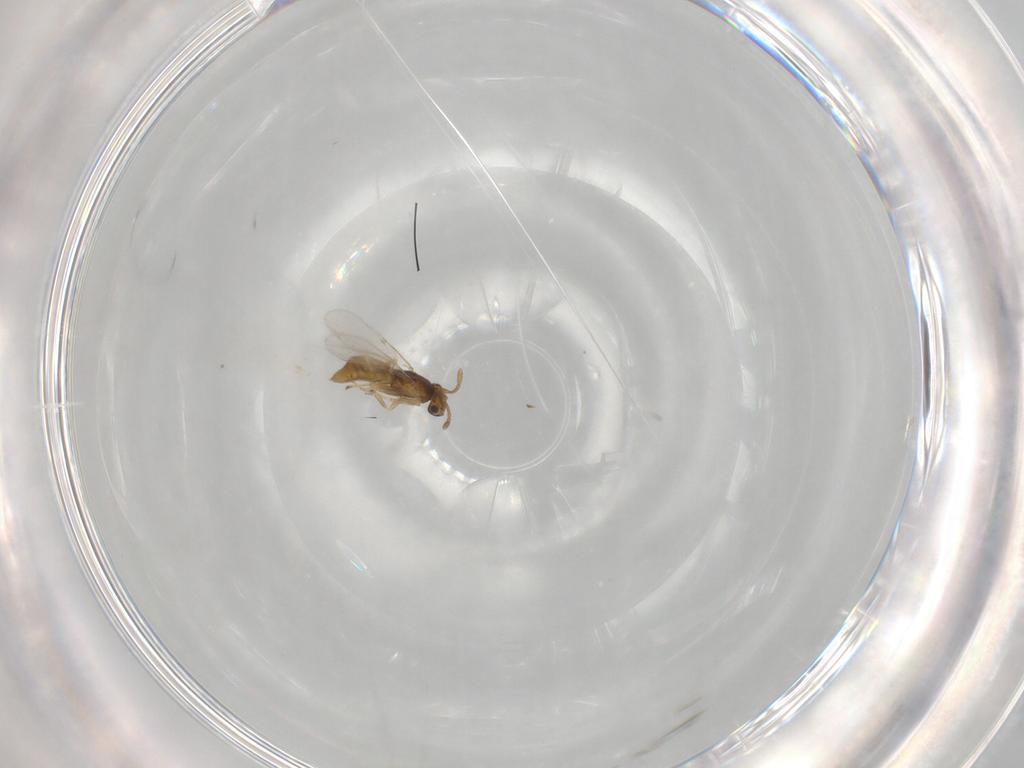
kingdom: Animalia
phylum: Arthropoda
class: Insecta
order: Hymenoptera
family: Encyrtidae
